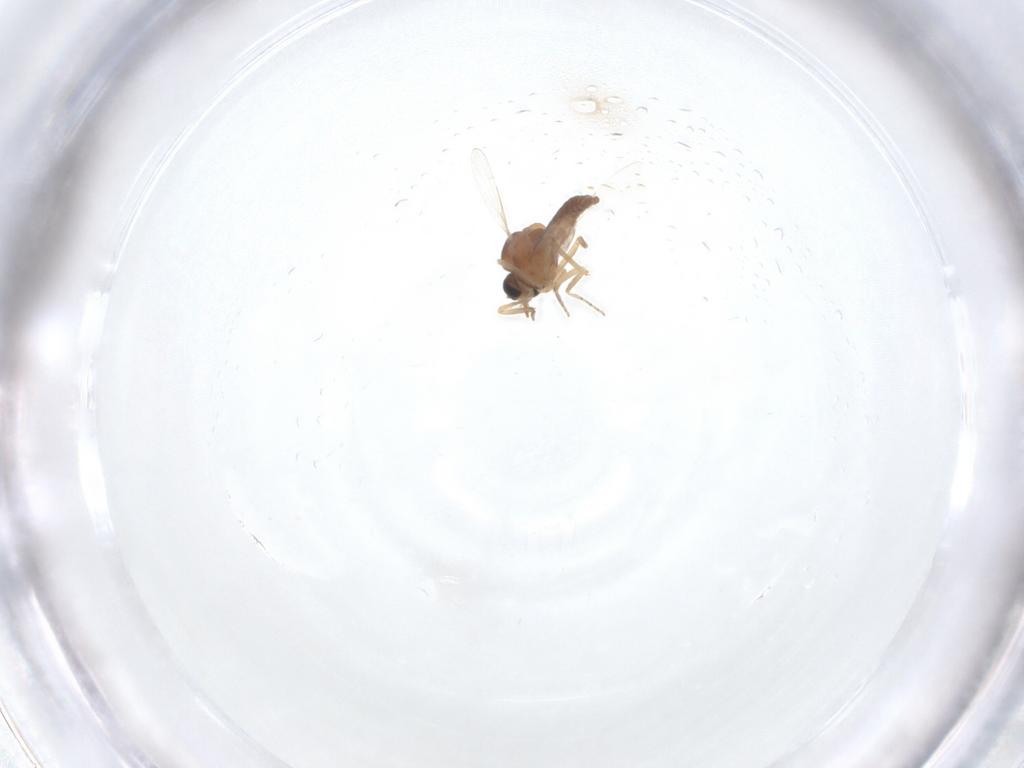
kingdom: Animalia
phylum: Arthropoda
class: Insecta
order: Diptera
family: Ceratopogonidae
